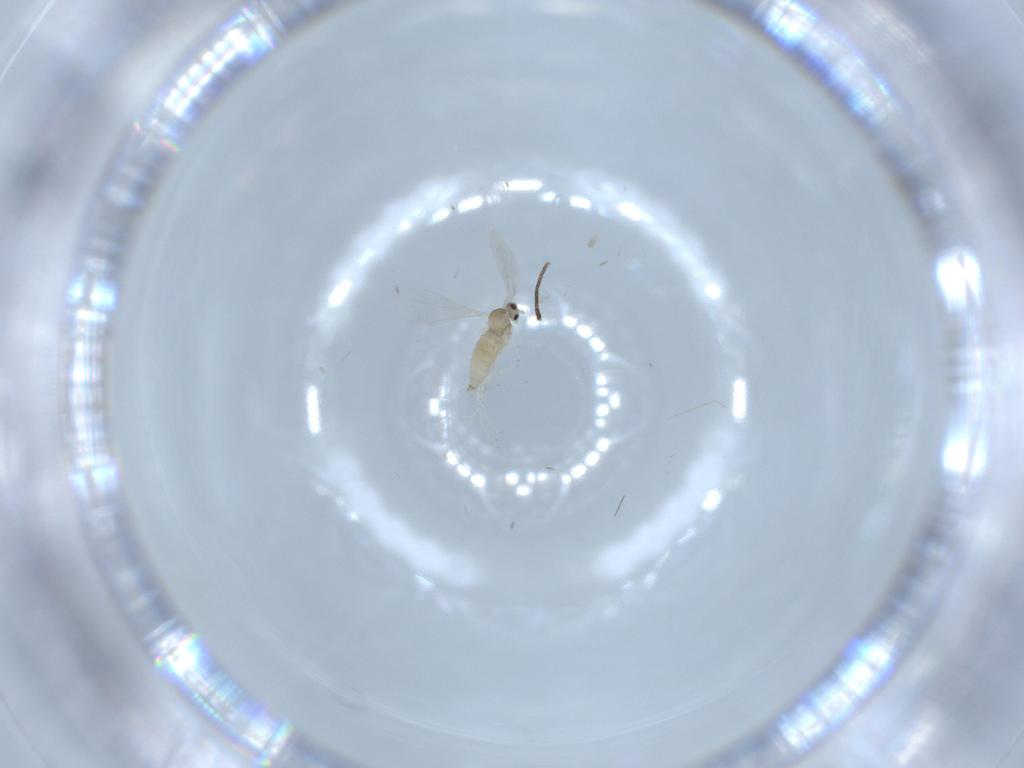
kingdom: Animalia
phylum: Arthropoda
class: Insecta
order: Diptera
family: Cecidomyiidae
